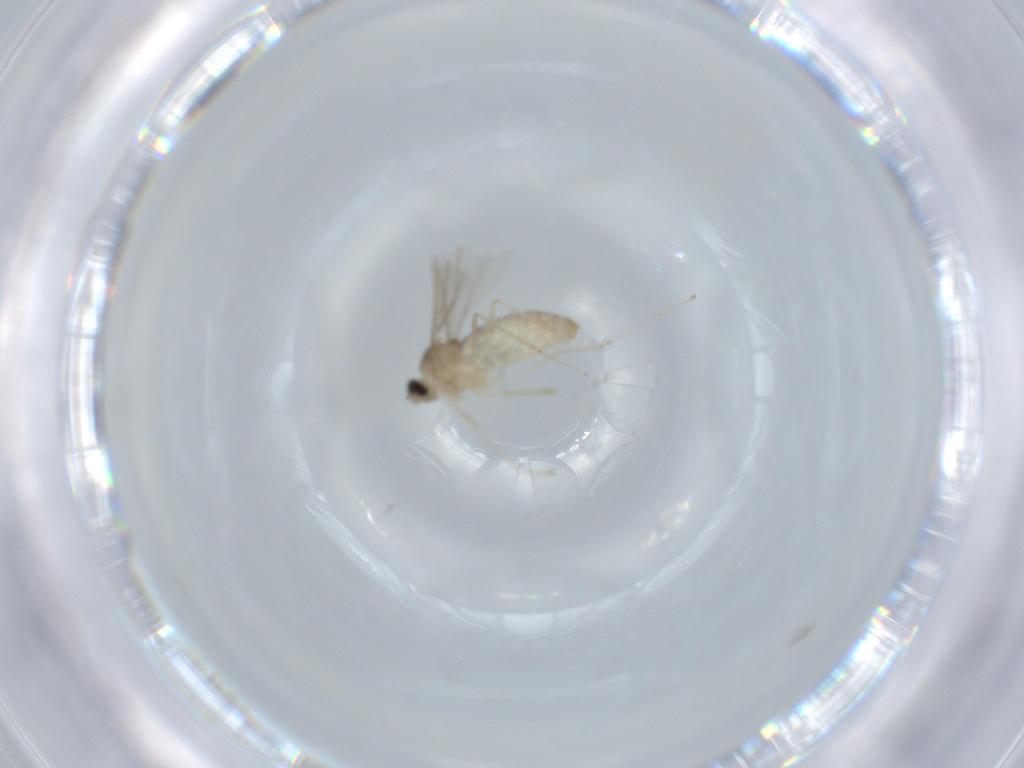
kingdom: Animalia
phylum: Arthropoda
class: Insecta
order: Diptera
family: Cecidomyiidae
